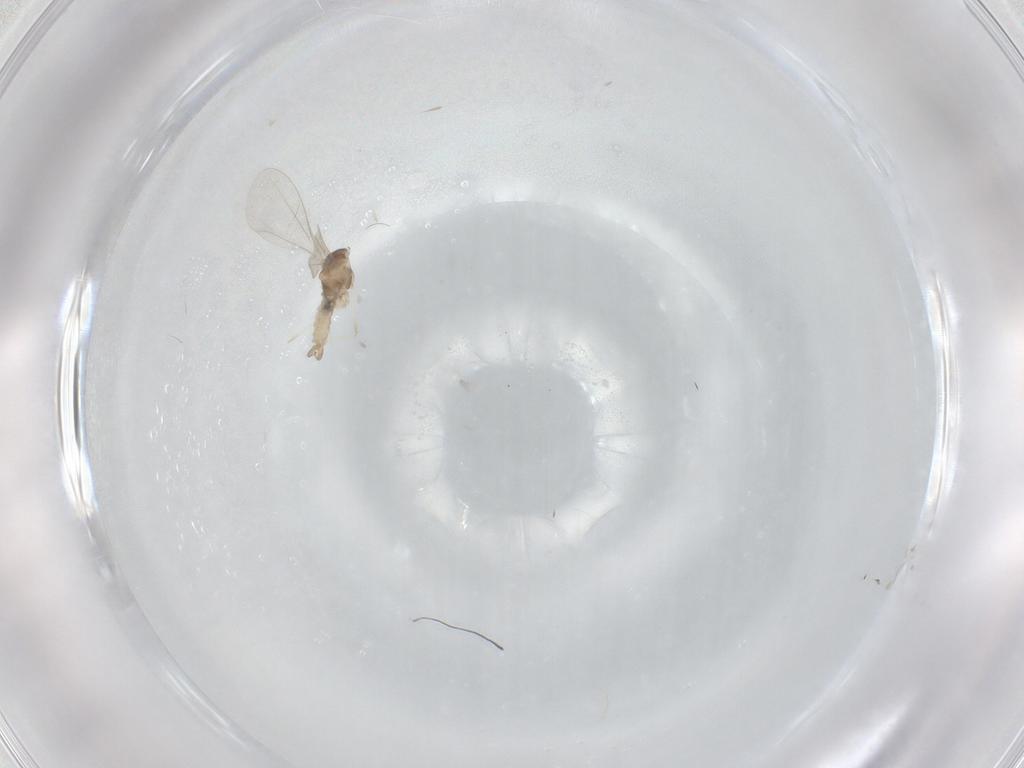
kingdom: Animalia
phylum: Arthropoda
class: Insecta
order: Diptera
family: Cecidomyiidae
